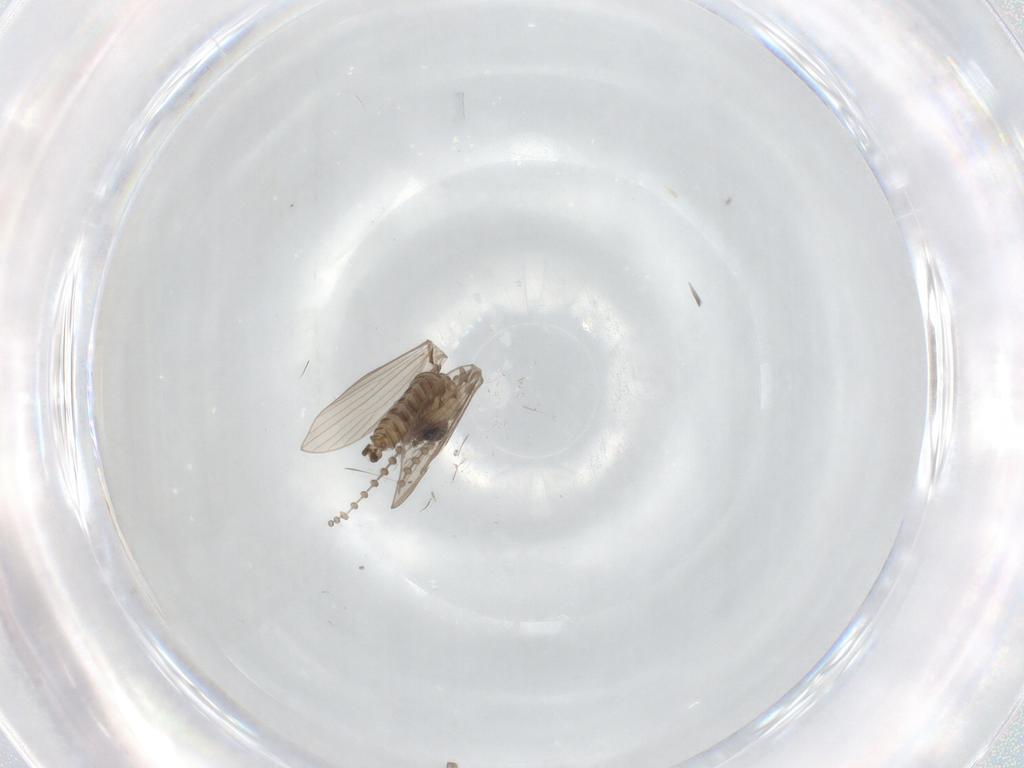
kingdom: Animalia
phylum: Arthropoda
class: Insecta
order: Diptera
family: Psychodidae
